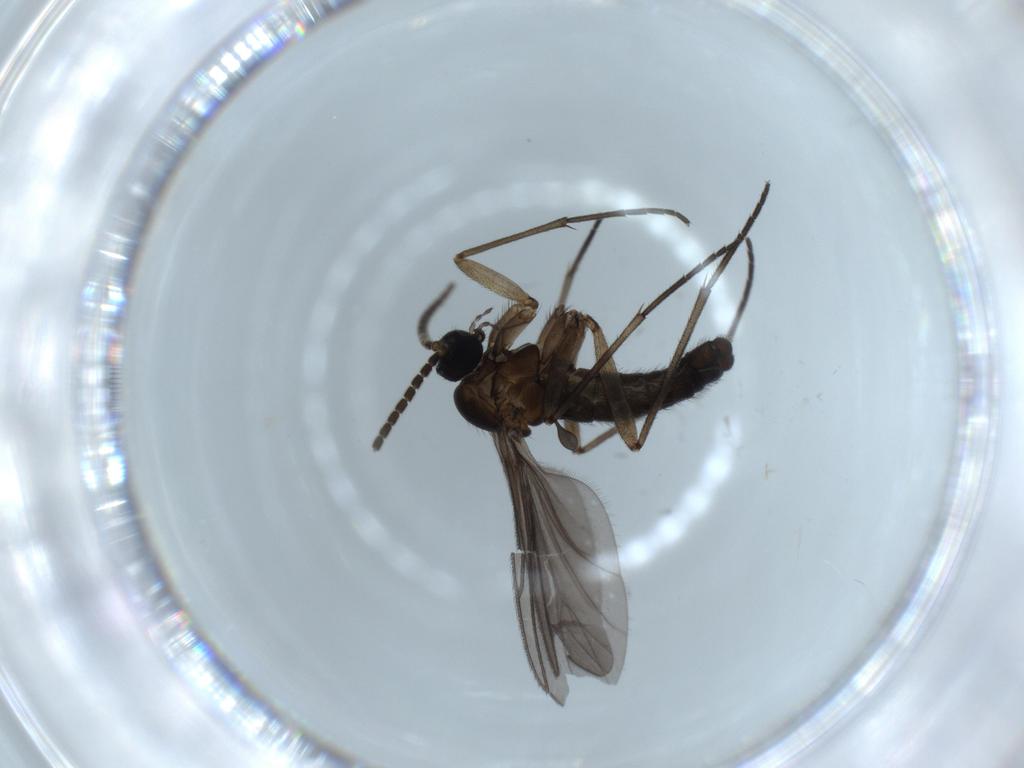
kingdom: Animalia
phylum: Arthropoda
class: Insecta
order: Diptera
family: Sciaridae
